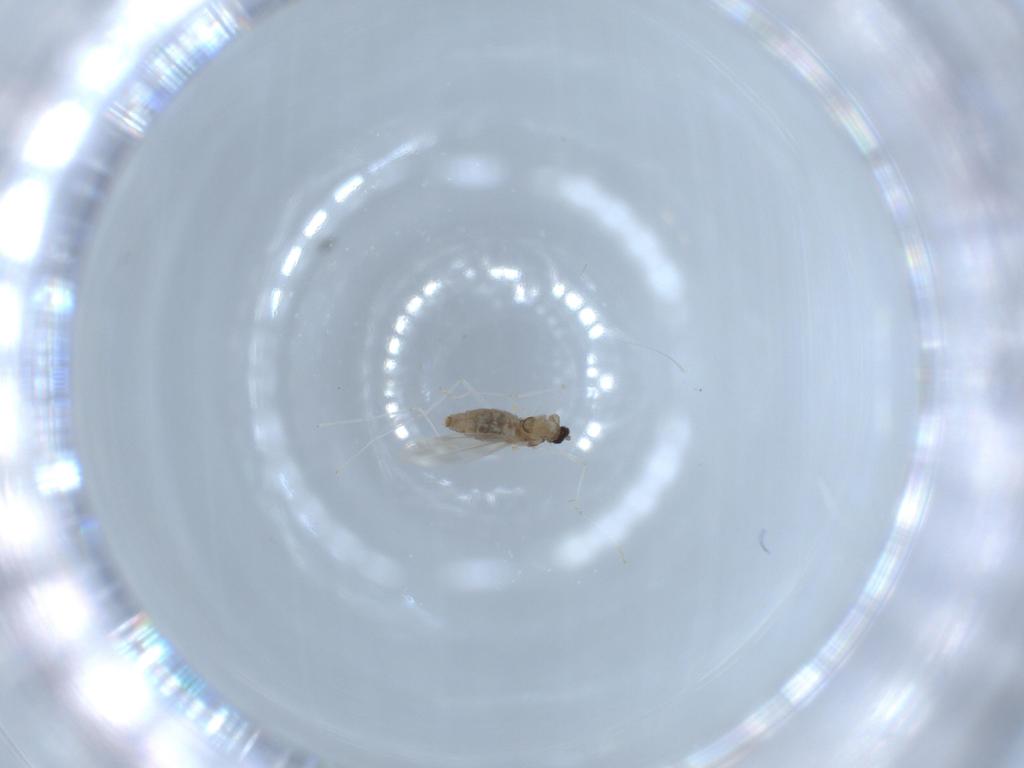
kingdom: Animalia
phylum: Arthropoda
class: Insecta
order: Diptera
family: Cecidomyiidae
